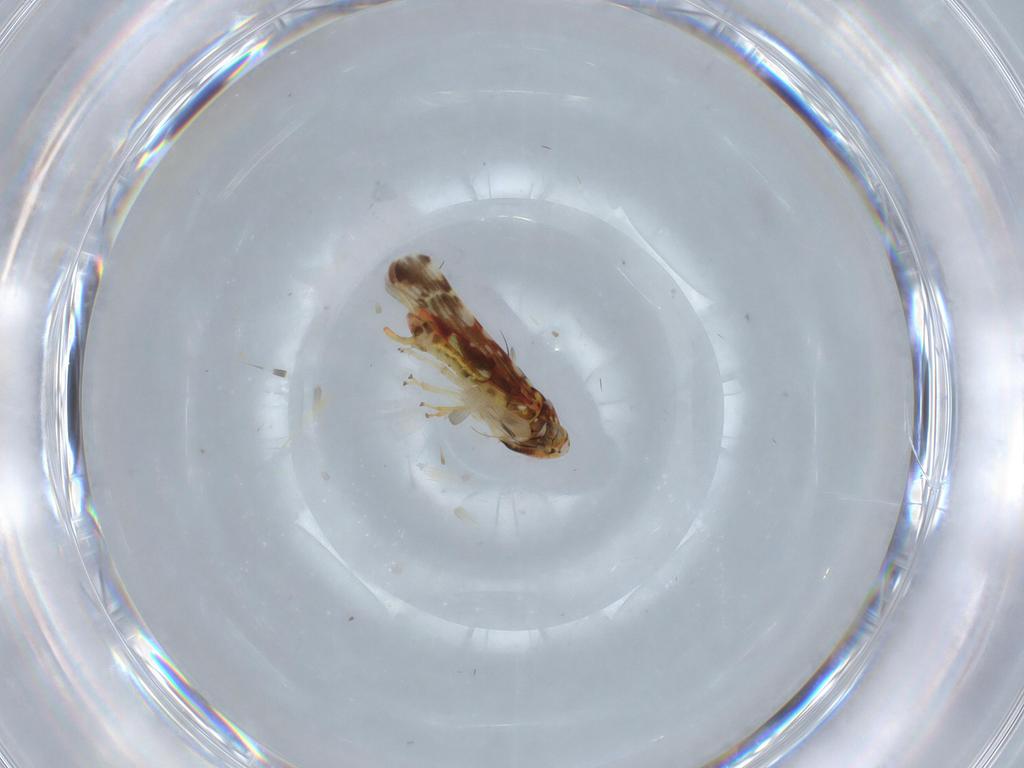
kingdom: Animalia
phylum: Arthropoda
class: Insecta
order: Hemiptera
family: Cicadellidae
